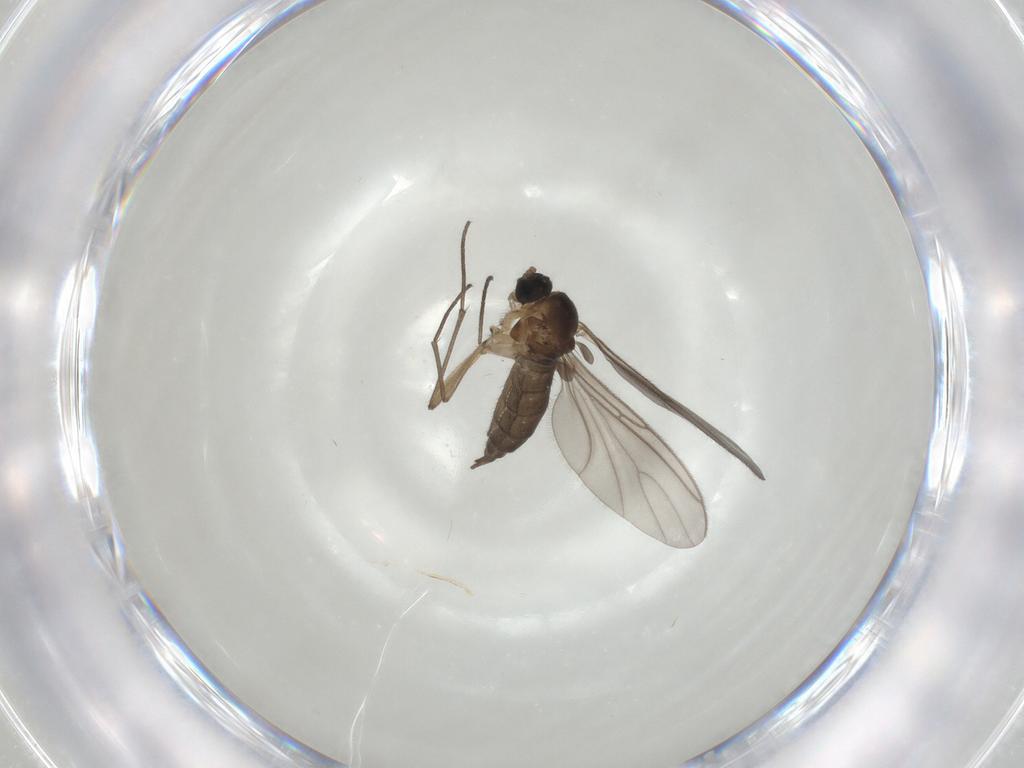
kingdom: Animalia
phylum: Arthropoda
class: Insecta
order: Diptera
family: Sciaridae
